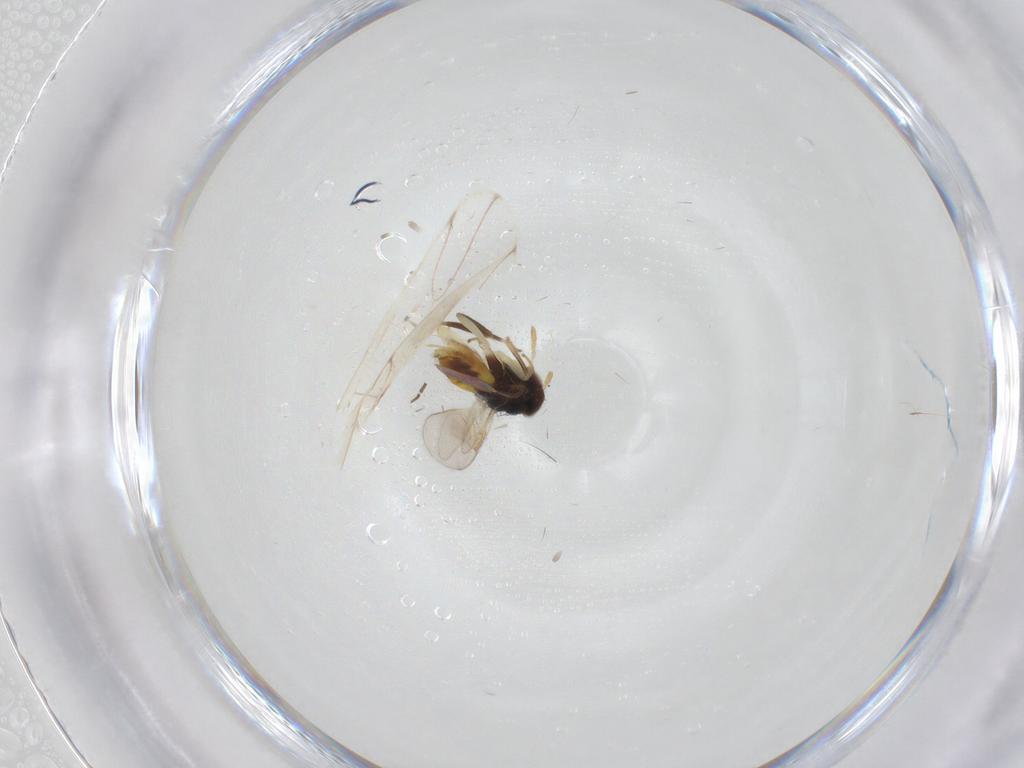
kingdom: Animalia
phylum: Arthropoda
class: Insecta
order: Hymenoptera
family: Aphelinidae
